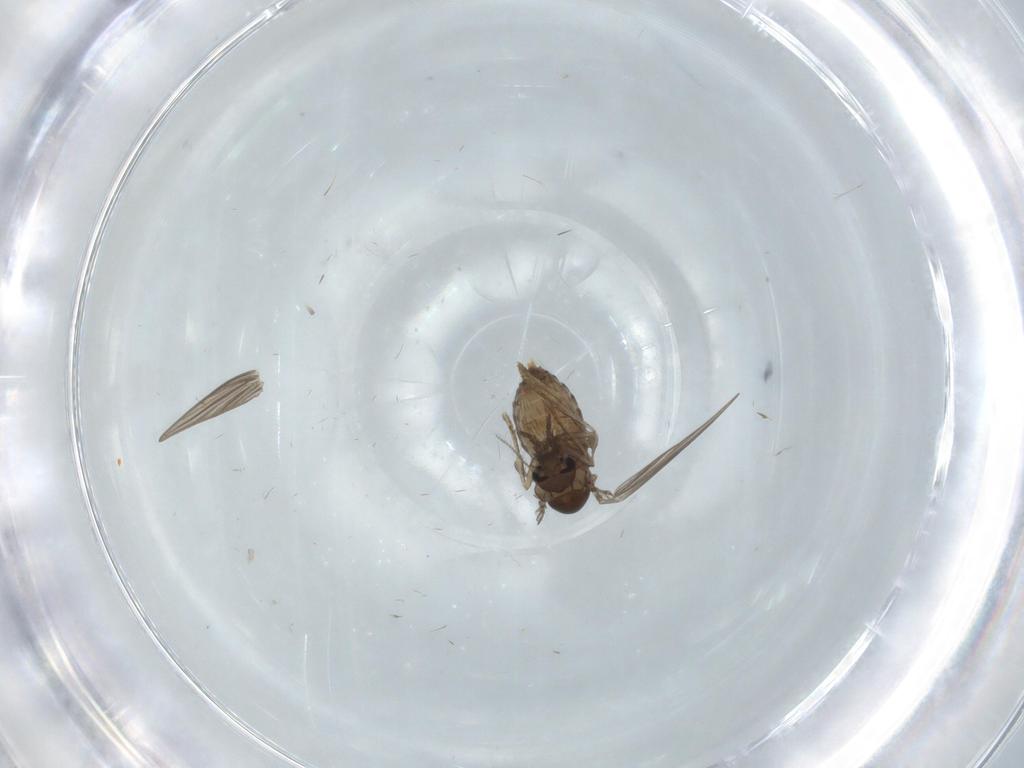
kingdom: Animalia
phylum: Arthropoda
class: Insecta
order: Diptera
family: Psychodidae
